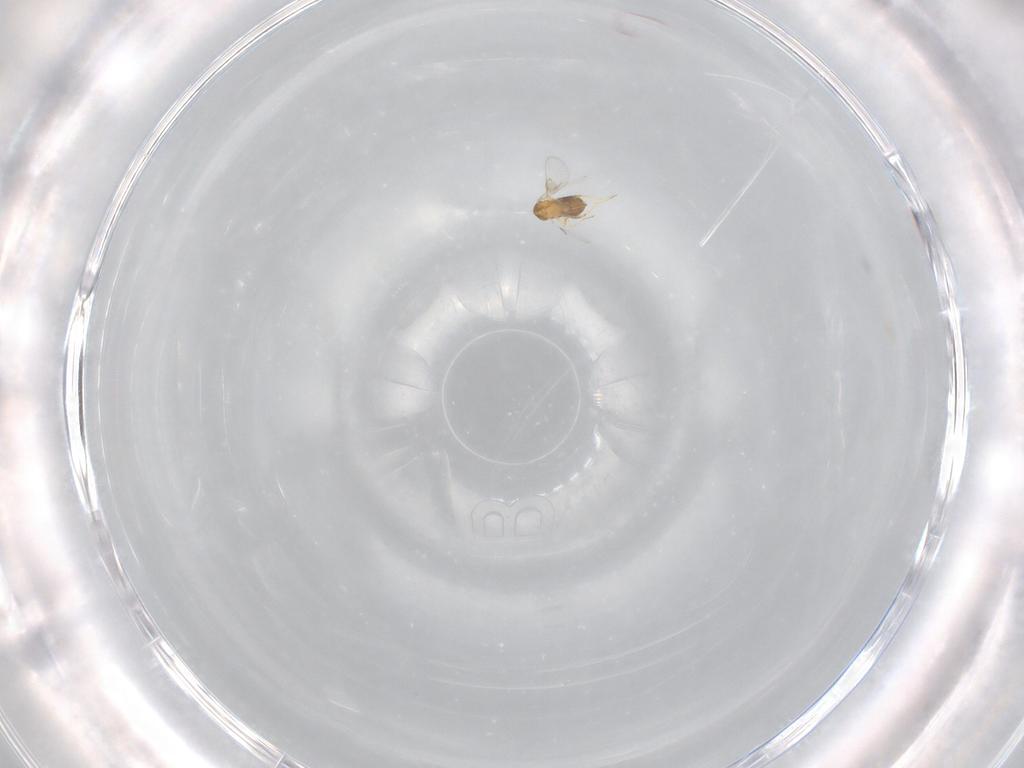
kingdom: Animalia
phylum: Arthropoda
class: Insecta
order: Hymenoptera
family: Trichogrammatidae
